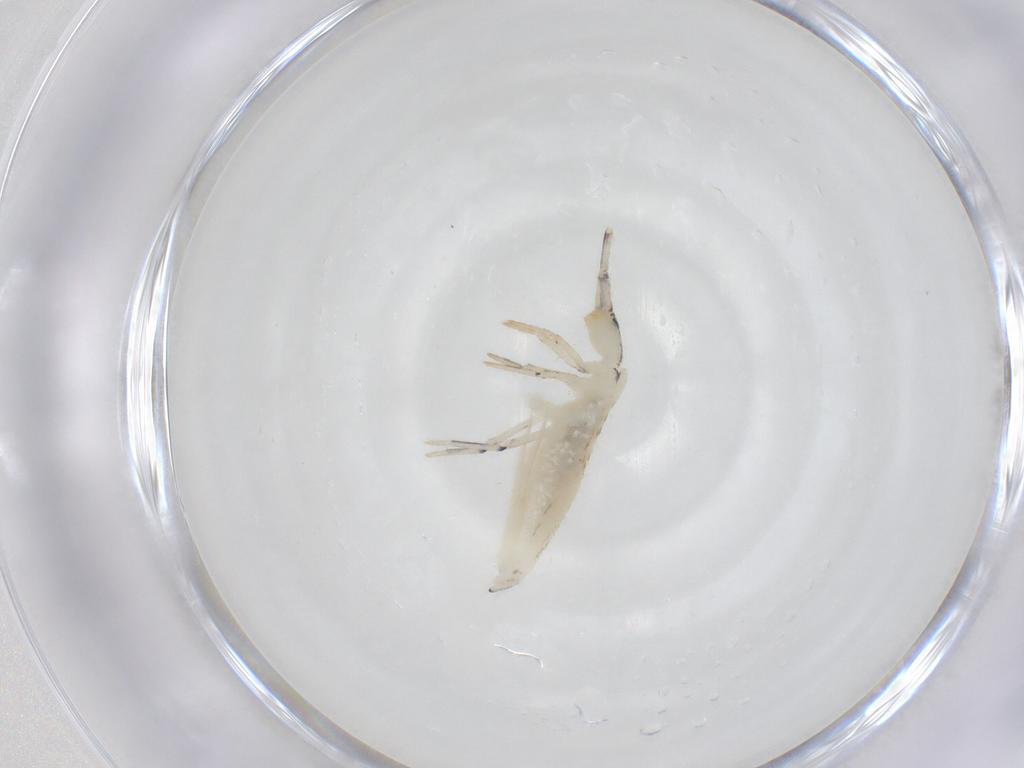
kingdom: Animalia
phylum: Arthropoda
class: Collembola
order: Entomobryomorpha
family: Entomobryidae
